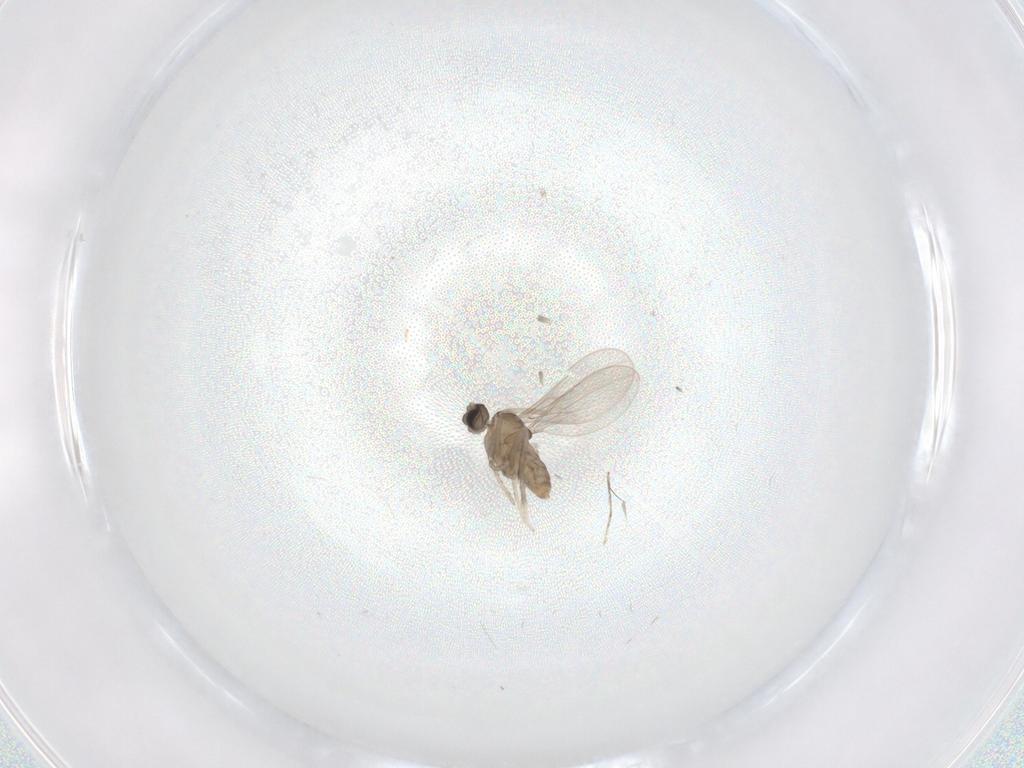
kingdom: Animalia
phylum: Arthropoda
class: Insecta
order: Diptera
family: Cecidomyiidae
